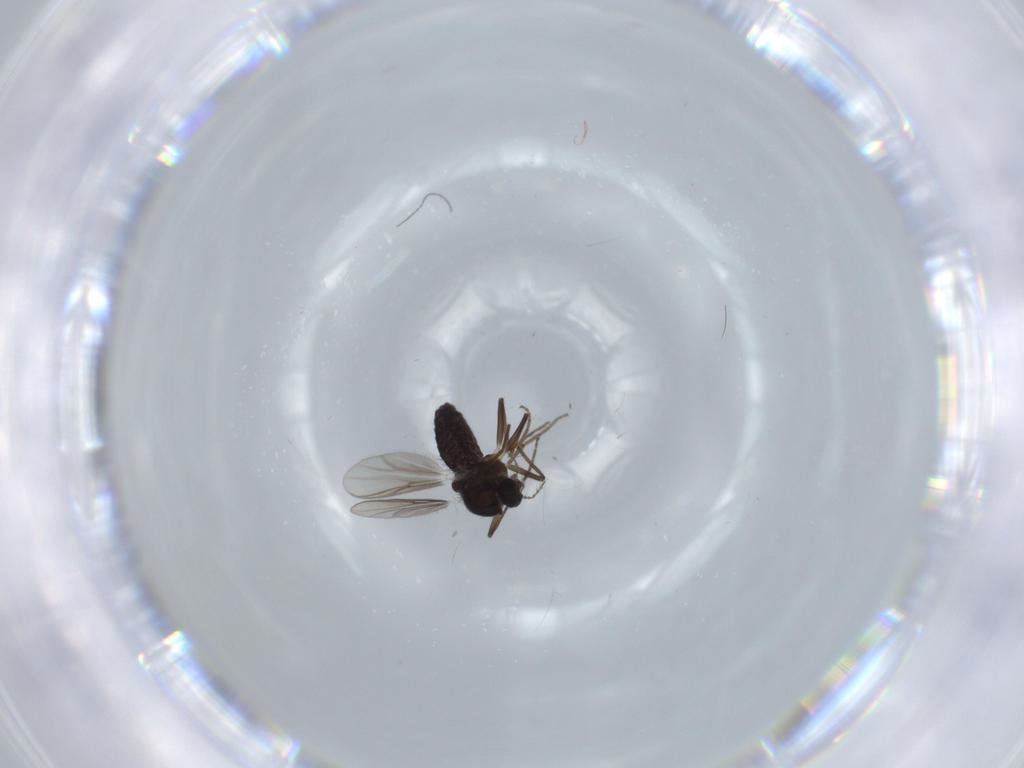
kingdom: Animalia
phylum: Arthropoda
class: Insecta
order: Diptera
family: Chironomidae
